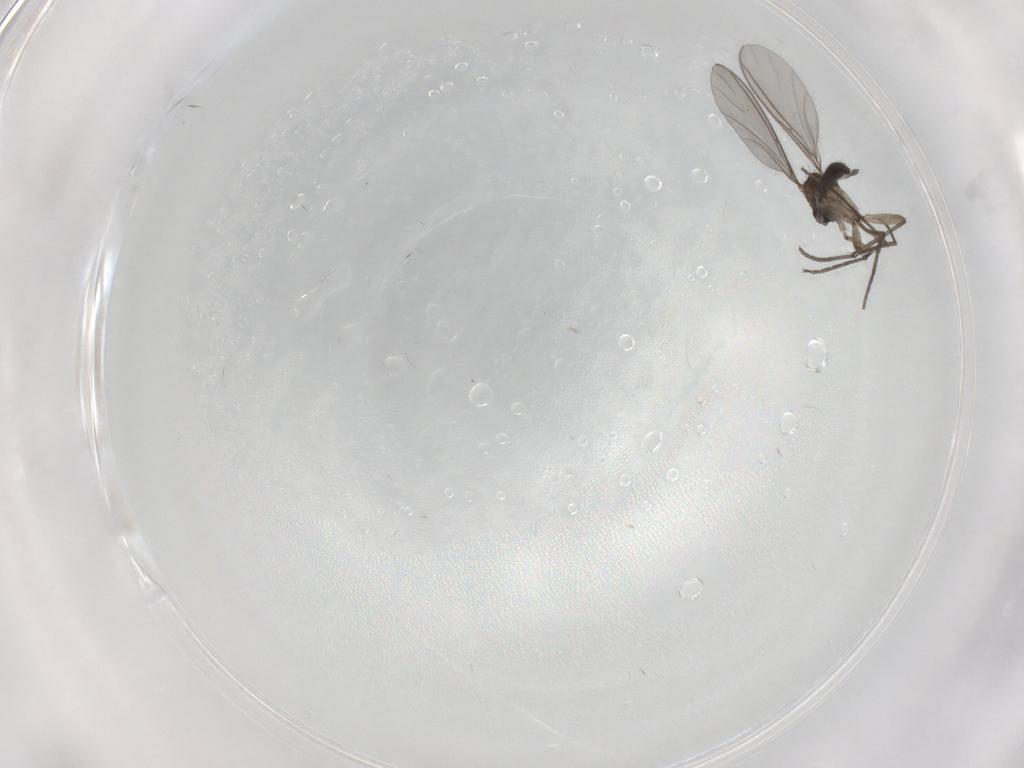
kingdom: Animalia
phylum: Arthropoda
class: Insecta
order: Diptera
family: Sciaridae
